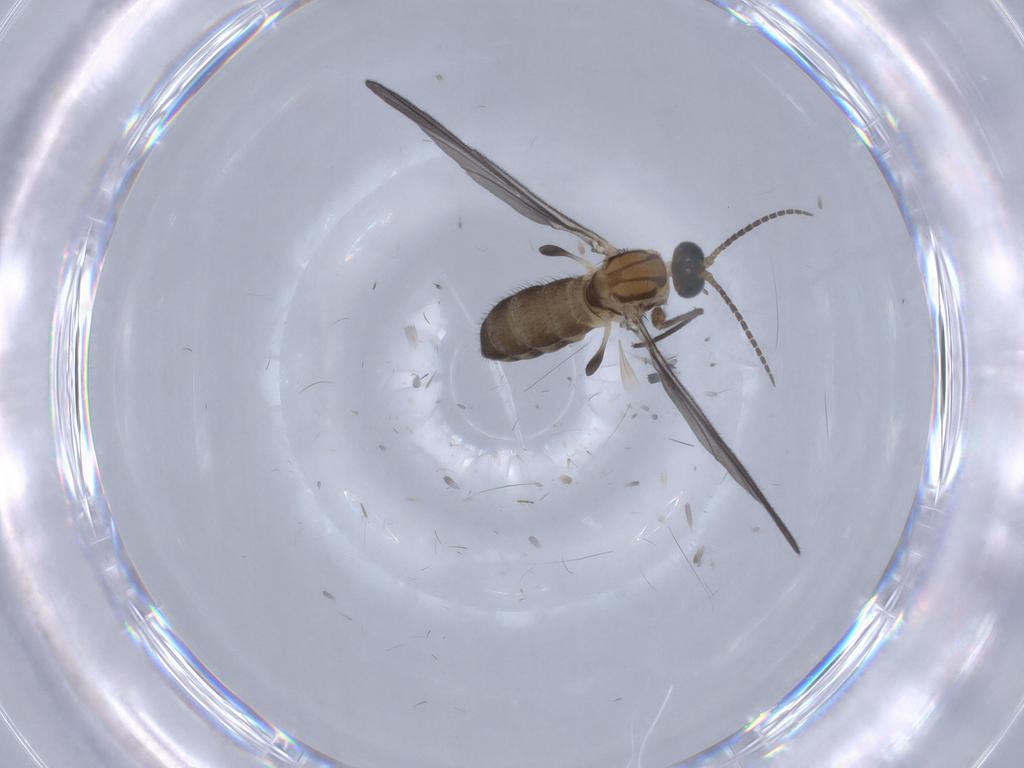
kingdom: Animalia
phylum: Arthropoda
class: Insecta
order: Diptera
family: Sciaridae
